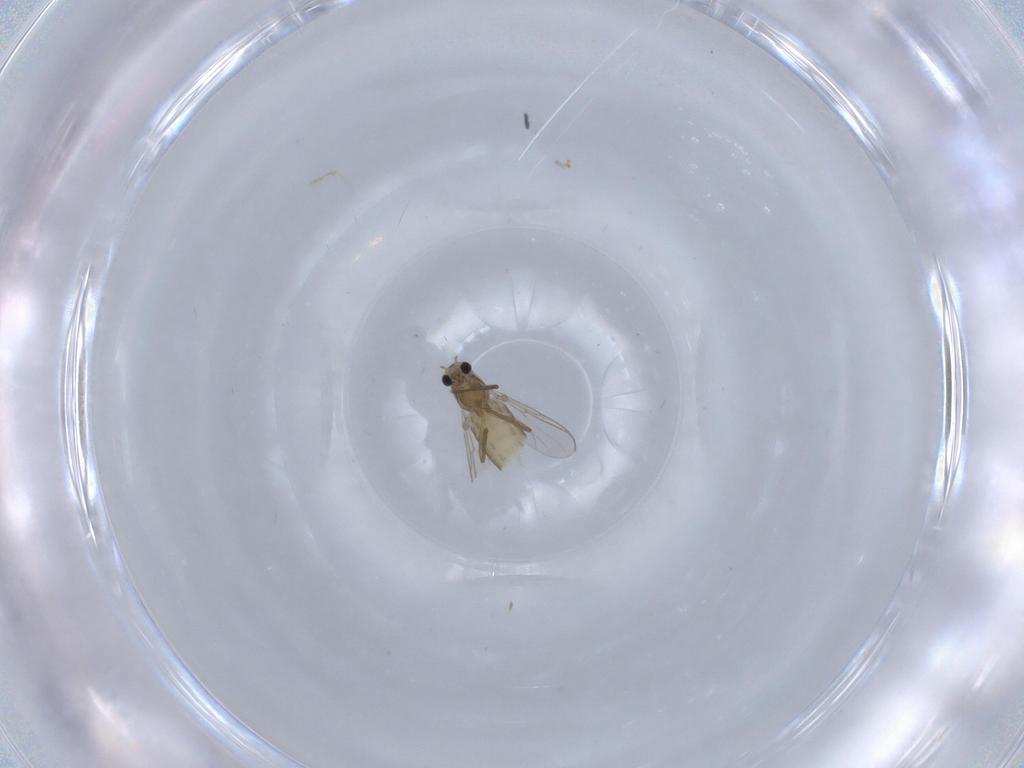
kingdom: Animalia
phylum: Arthropoda
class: Insecta
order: Diptera
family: Chironomidae
